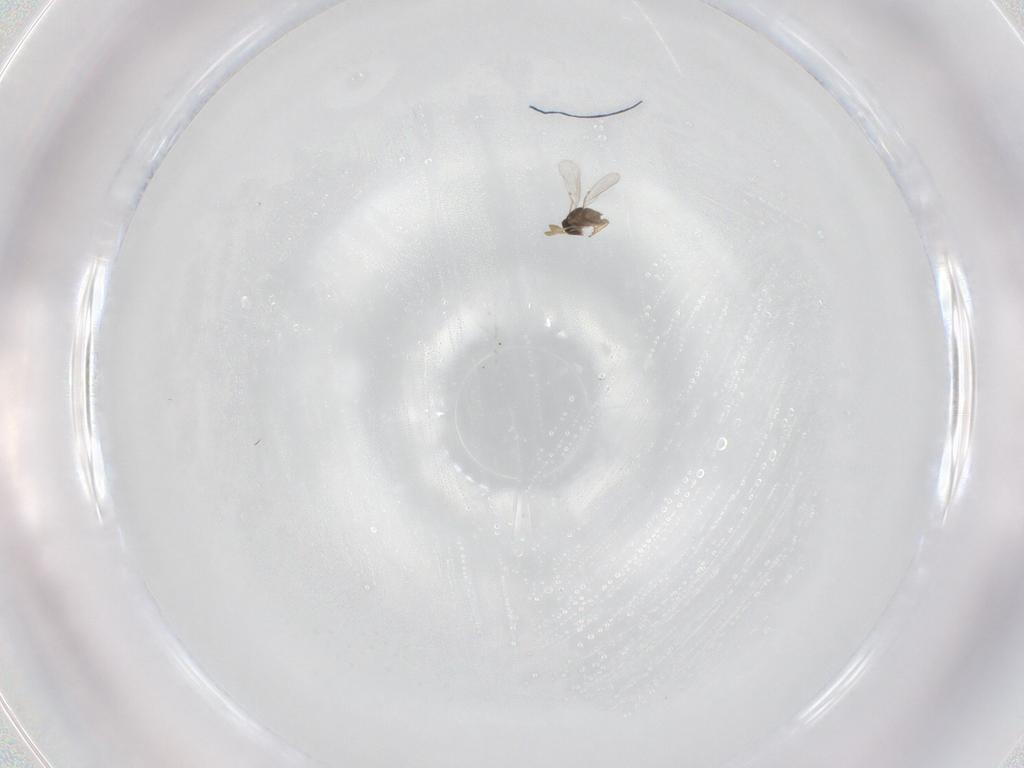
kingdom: Animalia
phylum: Arthropoda
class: Insecta
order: Hymenoptera
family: Encyrtidae
